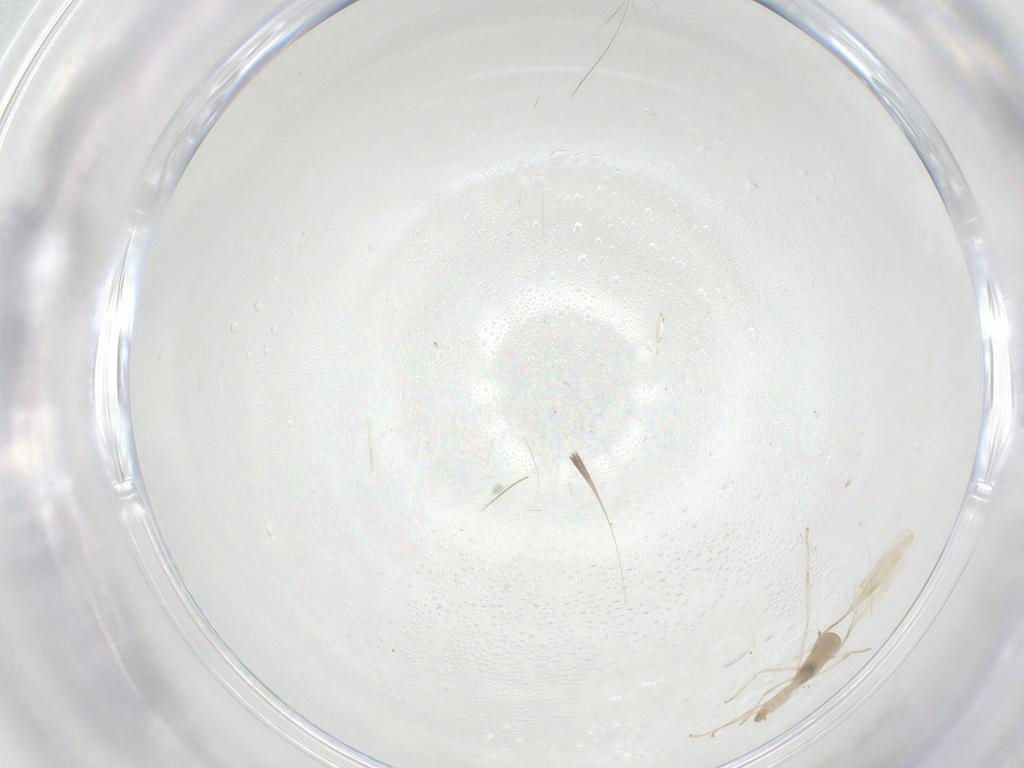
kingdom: Animalia
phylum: Arthropoda
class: Insecta
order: Diptera
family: Cecidomyiidae
